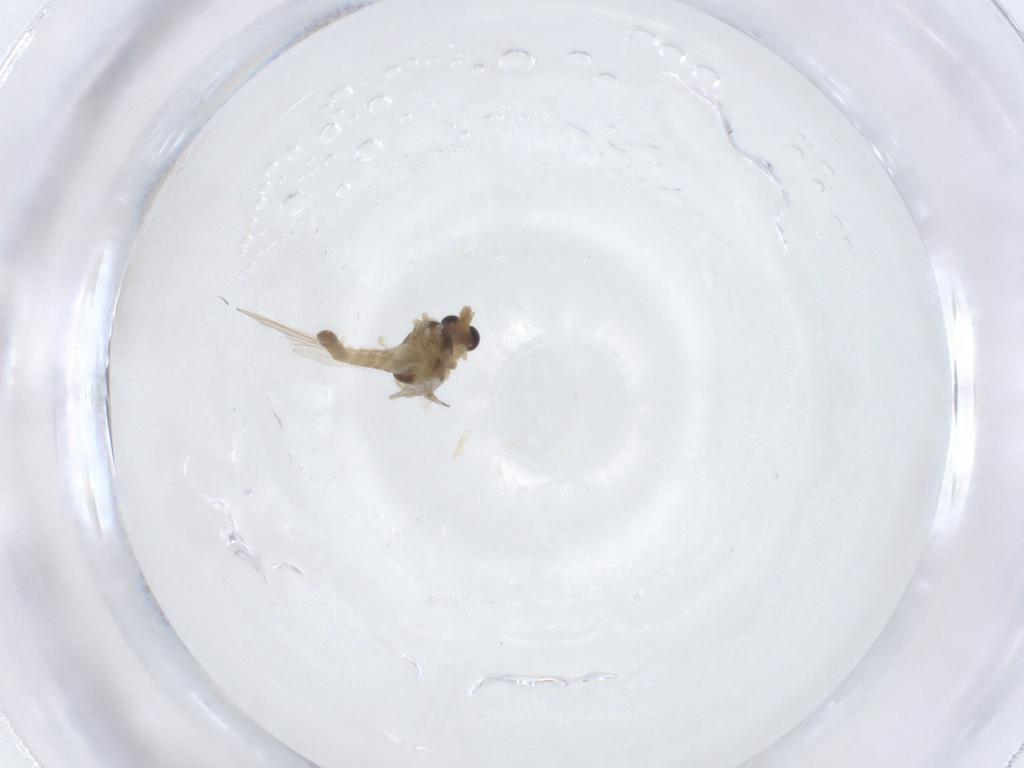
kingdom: Animalia
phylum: Arthropoda
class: Insecta
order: Diptera
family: Chironomidae
